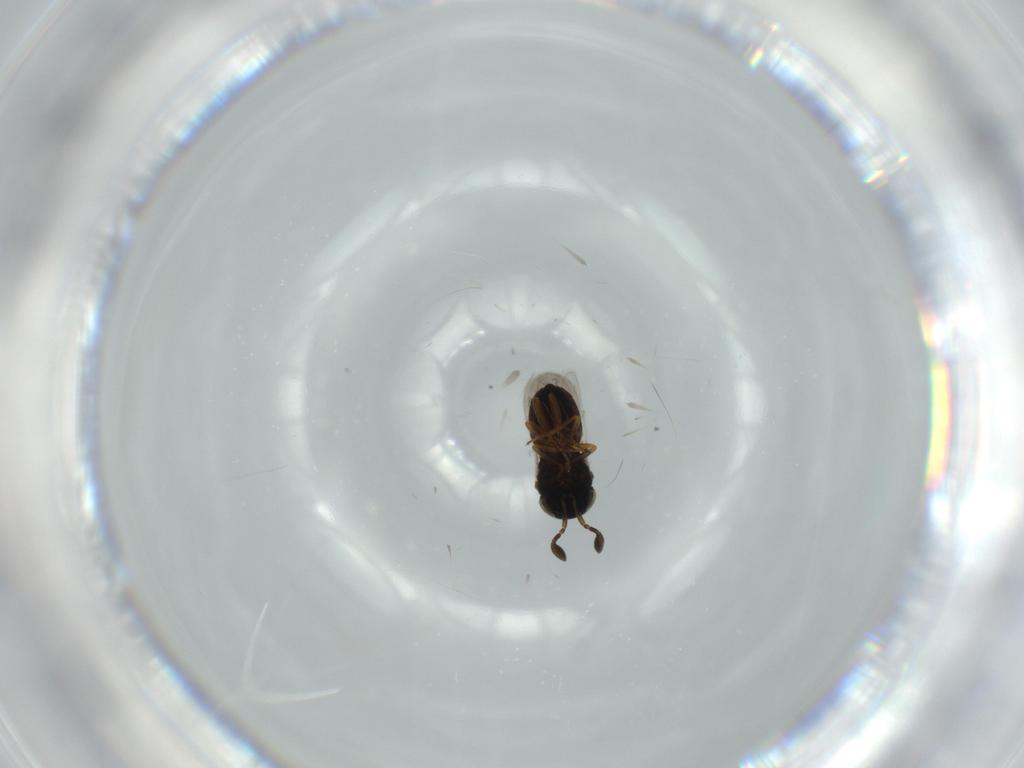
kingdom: Animalia
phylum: Arthropoda
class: Insecta
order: Coleoptera
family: Curculionidae
